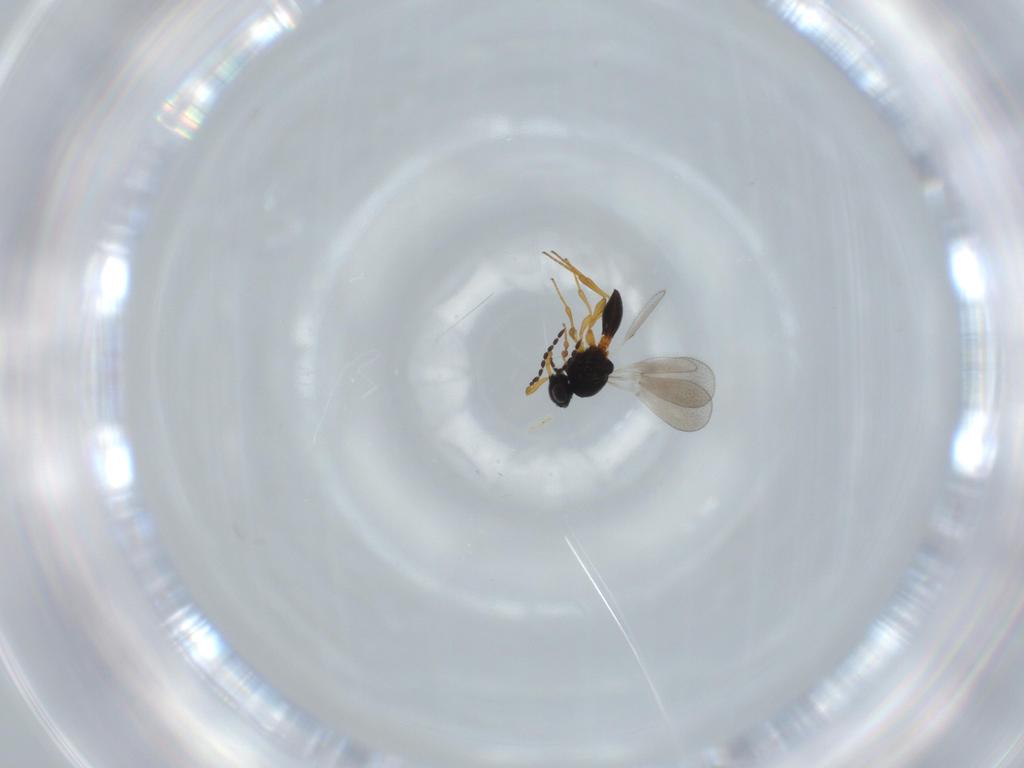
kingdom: Animalia
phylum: Arthropoda
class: Insecta
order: Hymenoptera
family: Platygastridae
